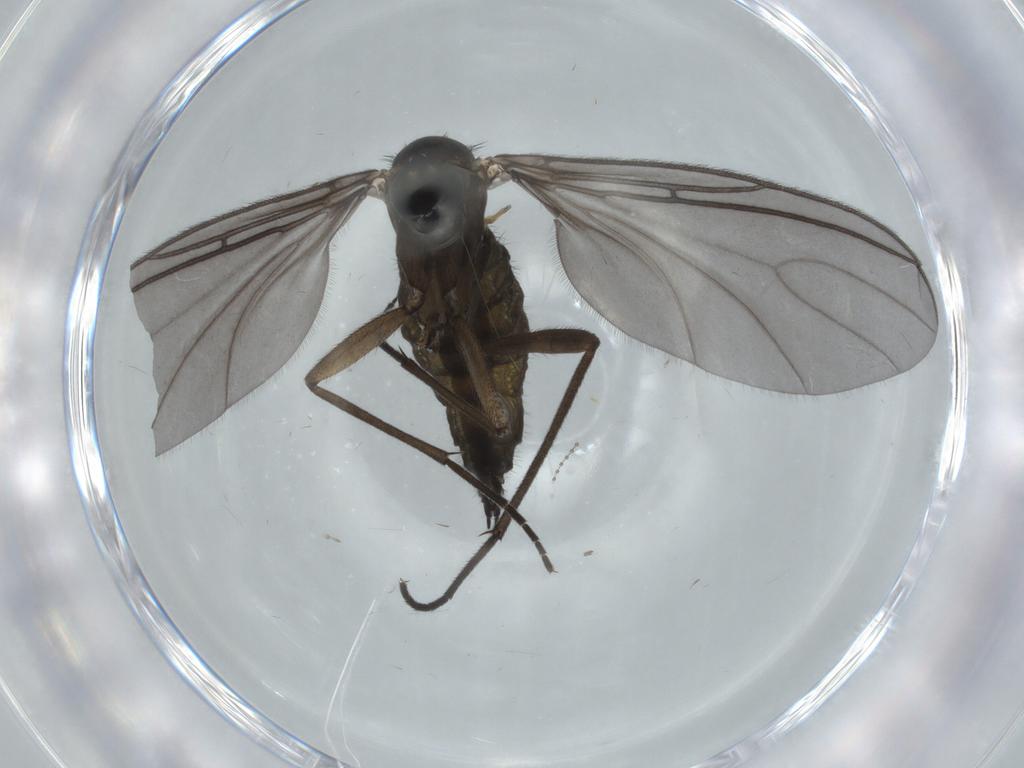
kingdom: Animalia
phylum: Arthropoda
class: Insecta
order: Diptera
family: Sciaridae
